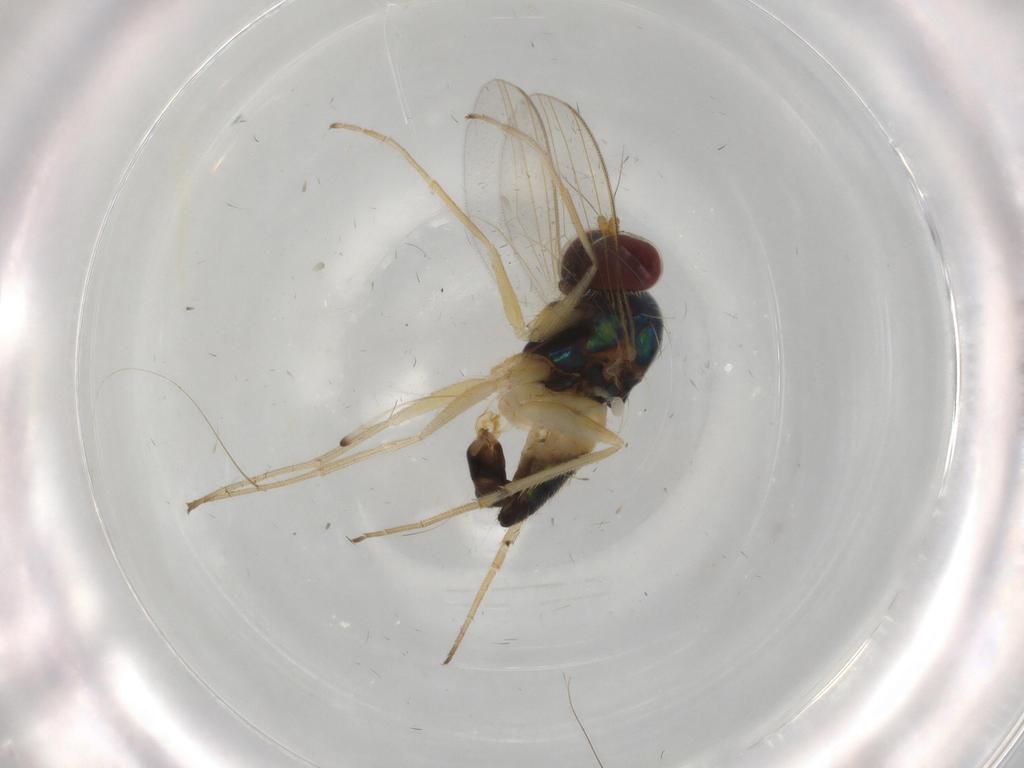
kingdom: Animalia
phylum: Arthropoda
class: Insecta
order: Diptera
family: Dolichopodidae
